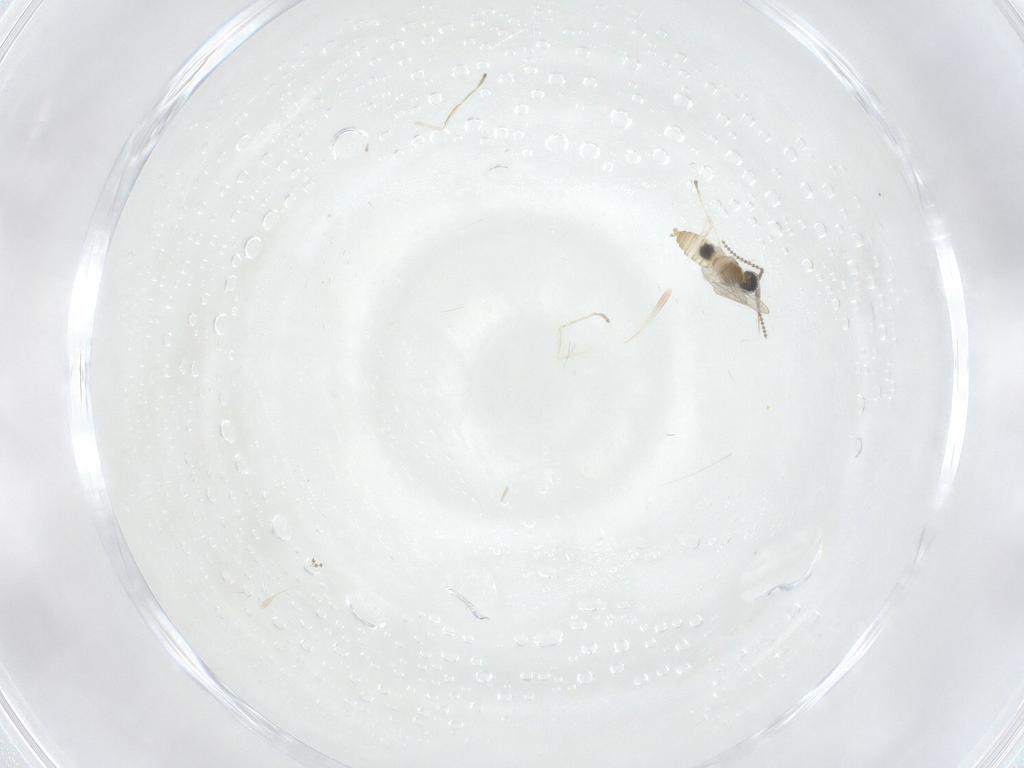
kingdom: Animalia
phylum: Arthropoda
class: Insecta
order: Diptera
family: Cecidomyiidae
